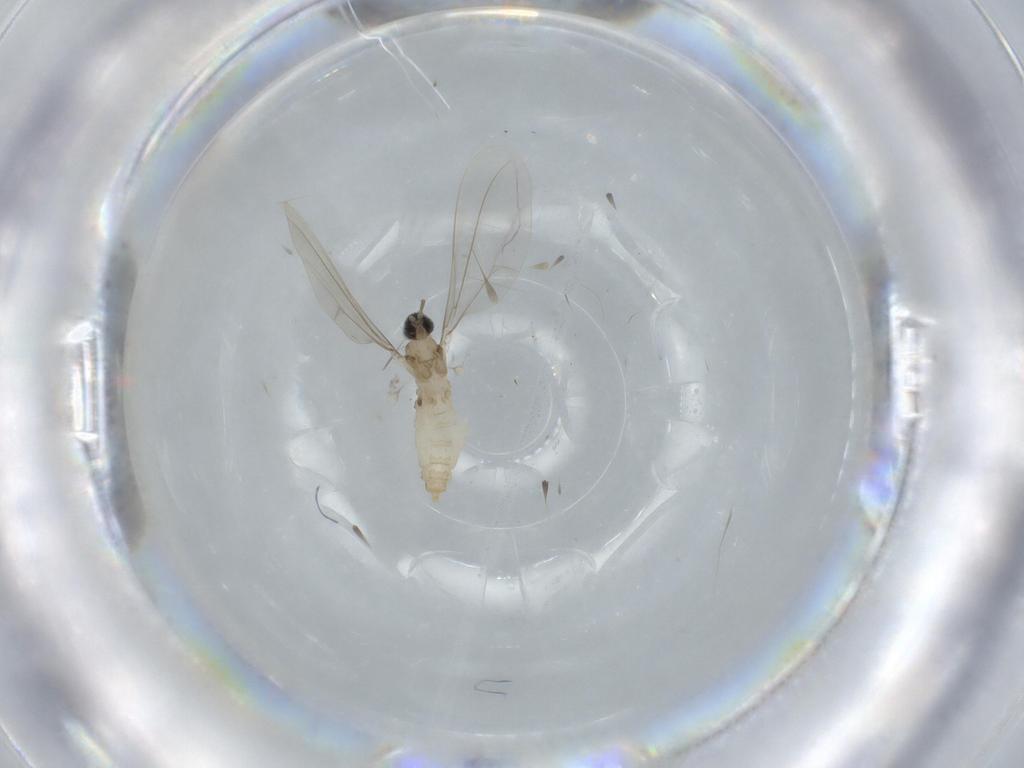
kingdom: Animalia
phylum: Arthropoda
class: Insecta
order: Diptera
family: Cecidomyiidae
